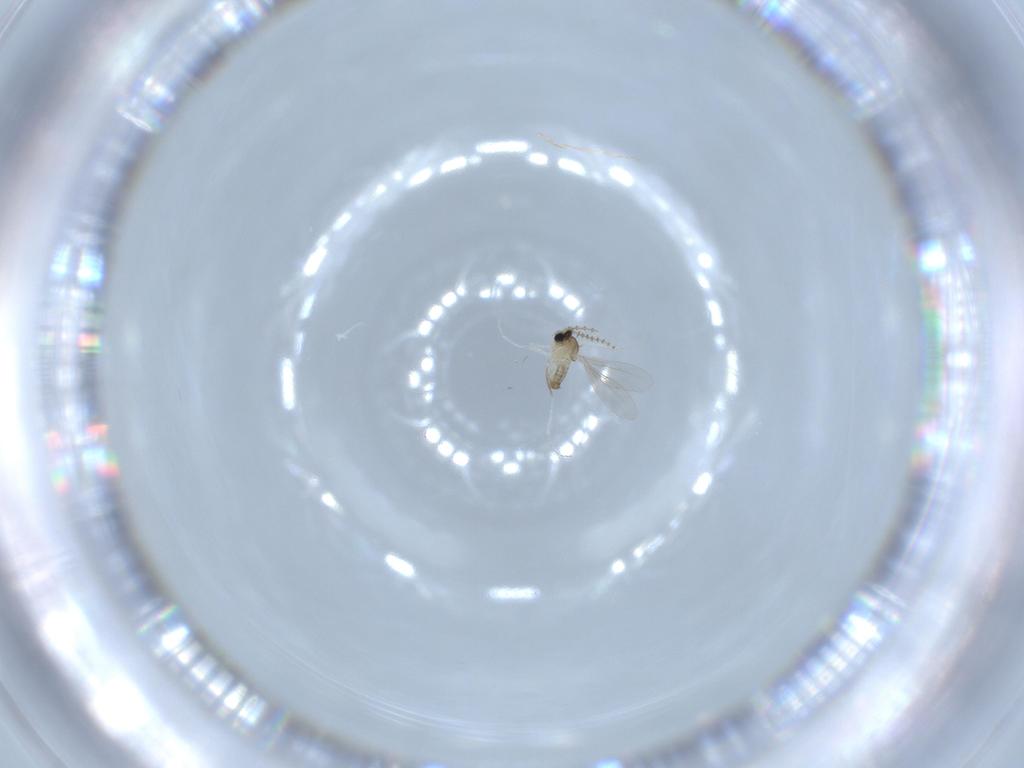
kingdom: Animalia
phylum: Arthropoda
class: Insecta
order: Diptera
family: Cecidomyiidae
